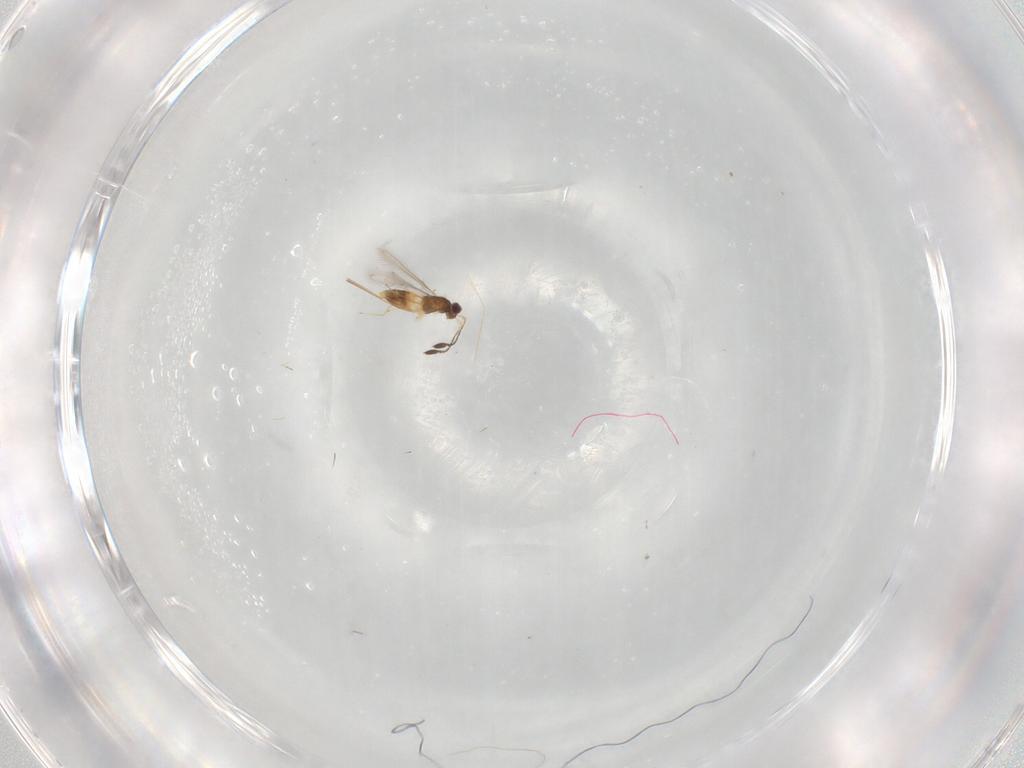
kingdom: Animalia
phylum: Arthropoda
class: Insecta
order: Hymenoptera
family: Mymaridae
